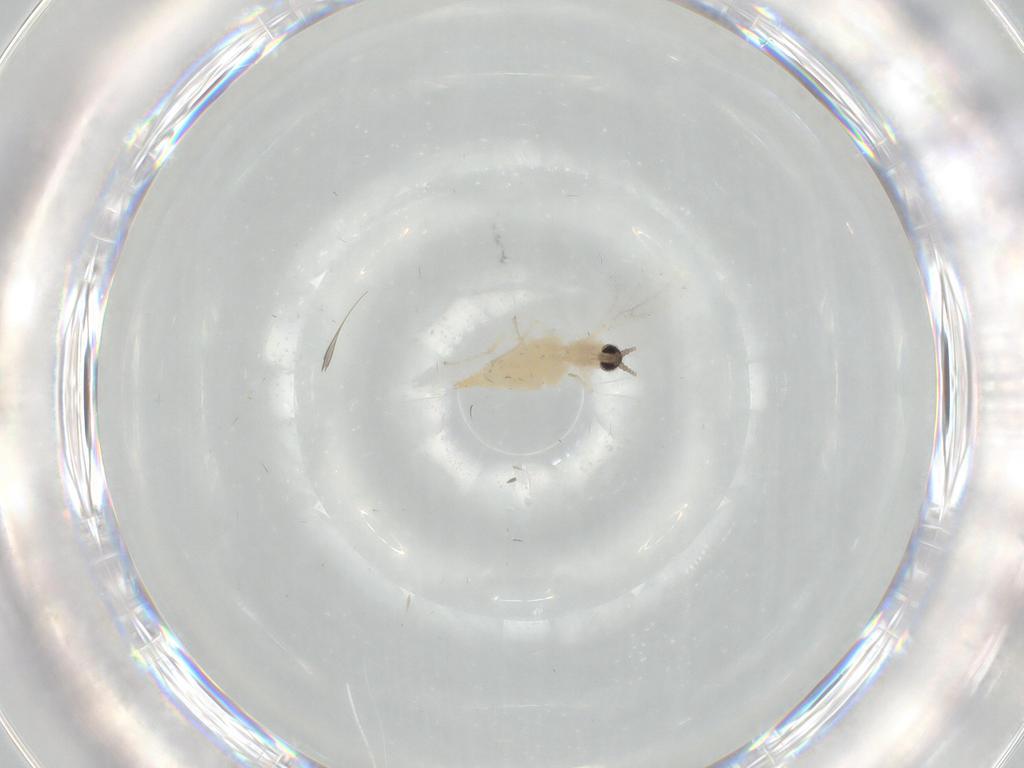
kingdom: Animalia
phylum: Arthropoda
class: Insecta
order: Diptera
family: Cecidomyiidae
